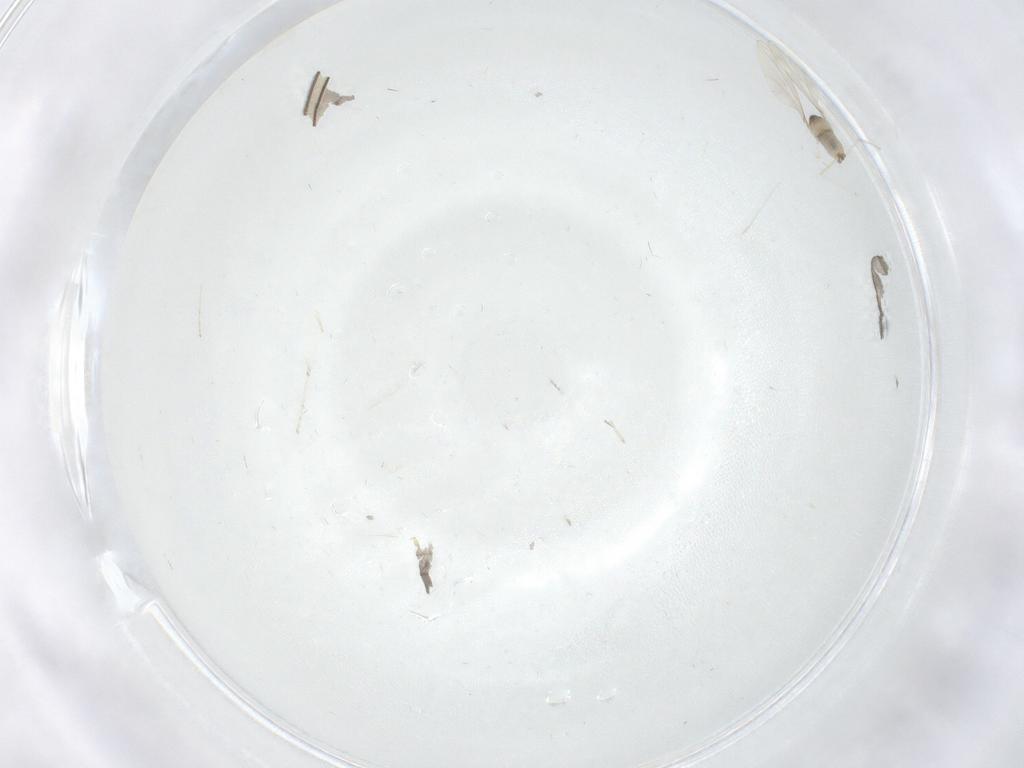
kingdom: Animalia
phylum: Arthropoda
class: Insecta
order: Diptera
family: Cecidomyiidae
